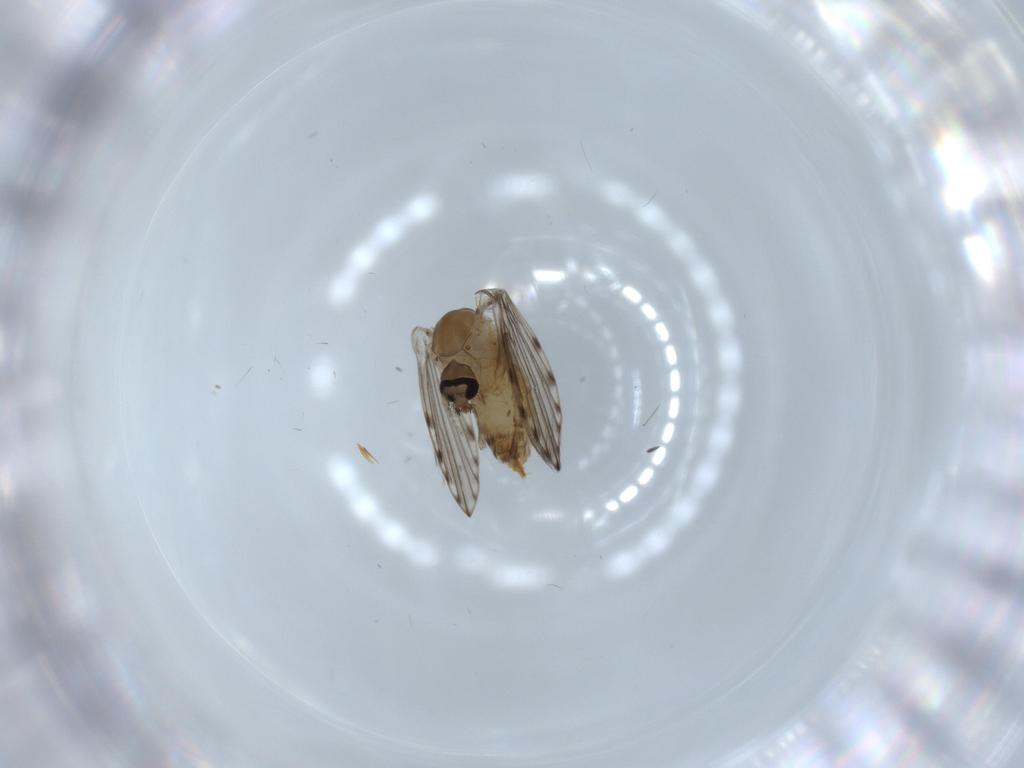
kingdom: Animalia
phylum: Arthropoda
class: Insecta
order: Diptera
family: Psychodidae
